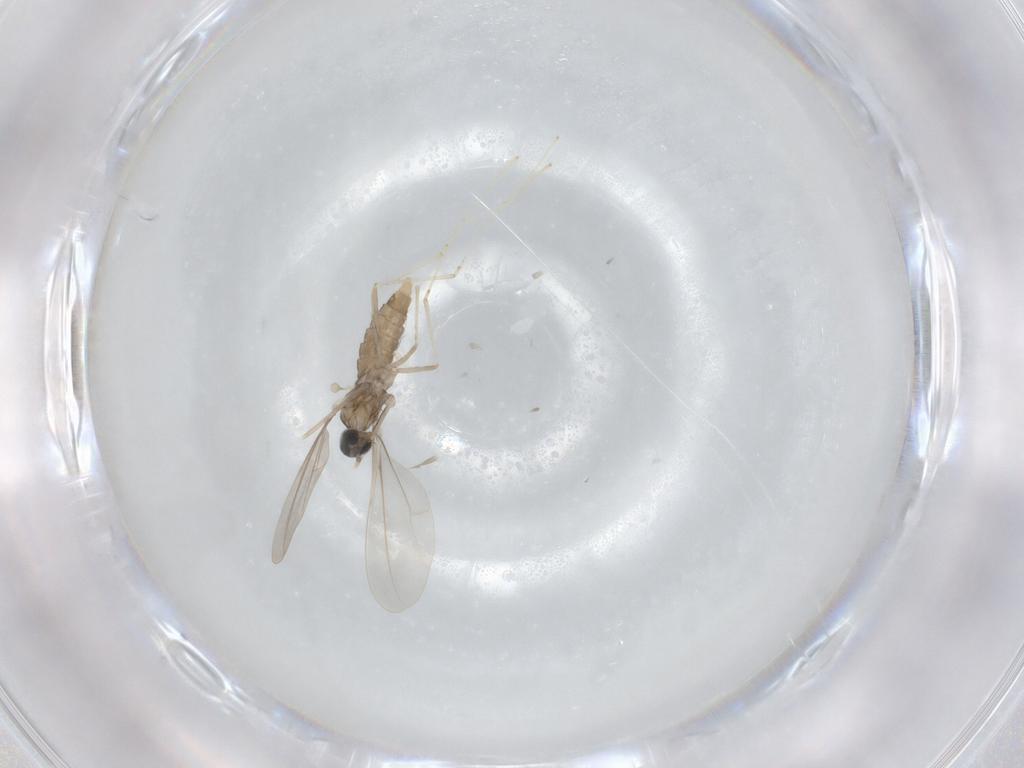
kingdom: Animalia
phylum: Arthropoda
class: Insecta
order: Diptera
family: Cecidomyiidae
